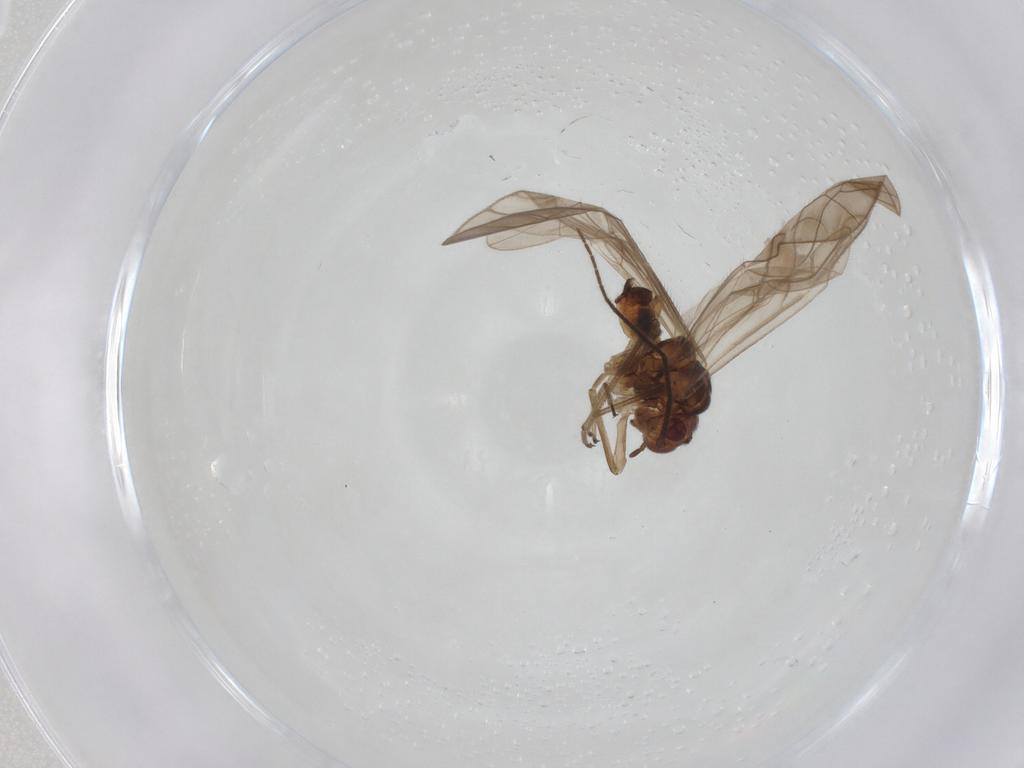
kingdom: Animalia
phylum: Arthropoda
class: Insecta
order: Psocodea
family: Philotarsidae
